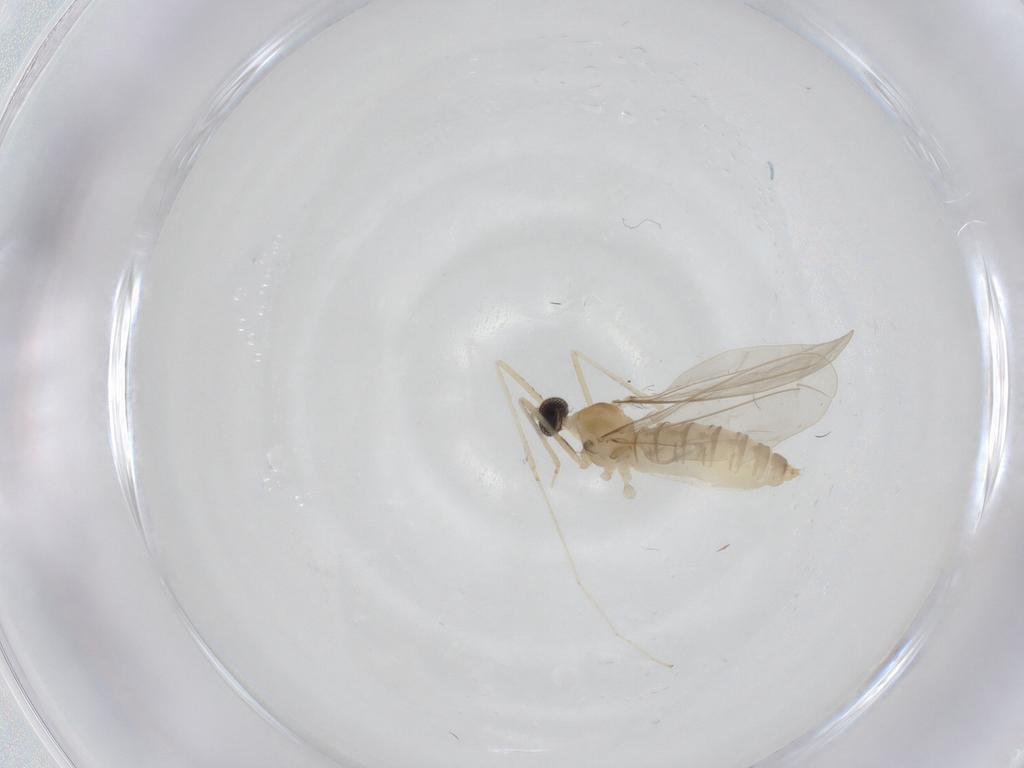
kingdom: Animalia
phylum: Arthropoda
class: Insecta
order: Diptera
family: Cecidomyiidae
